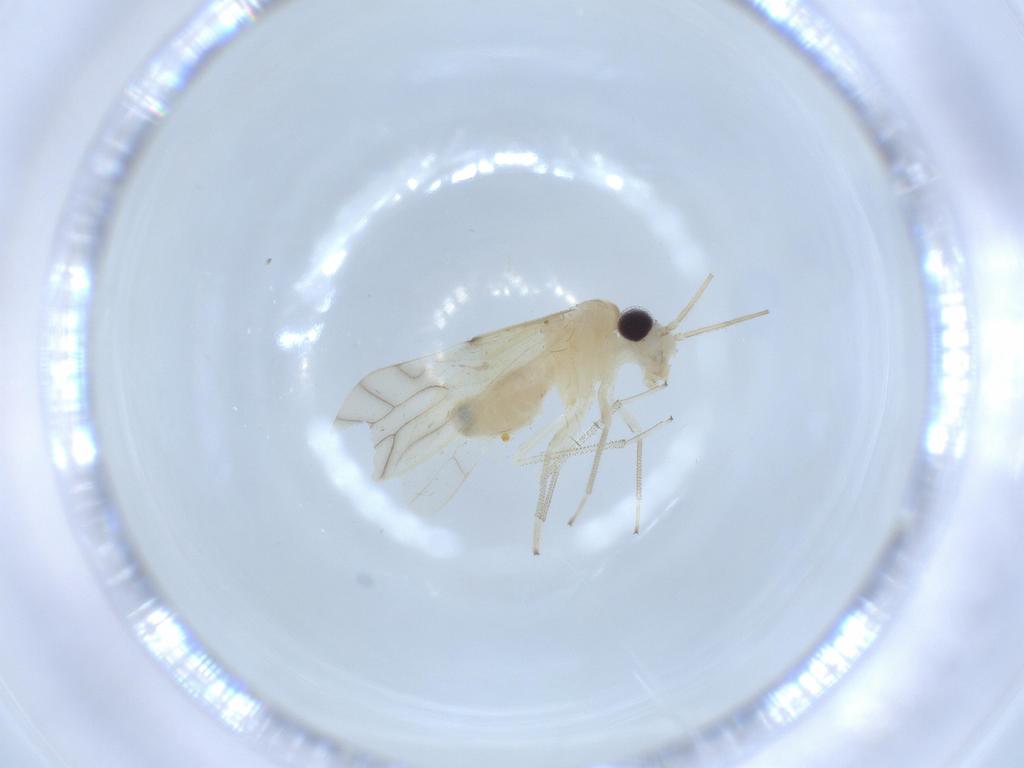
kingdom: Animalia
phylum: Arthropoda
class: Insecta
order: Psocodea
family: Caeciliusidae
